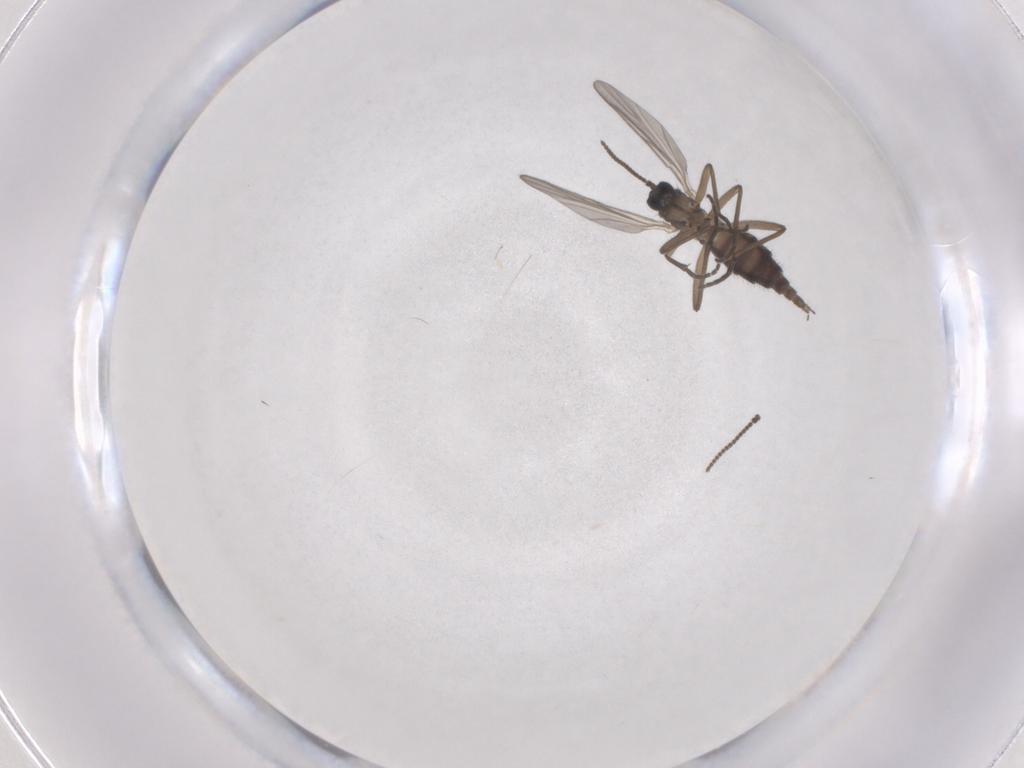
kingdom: Animalia
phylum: Arthropoda
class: Insecta
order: Diptera
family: Sciaridae
